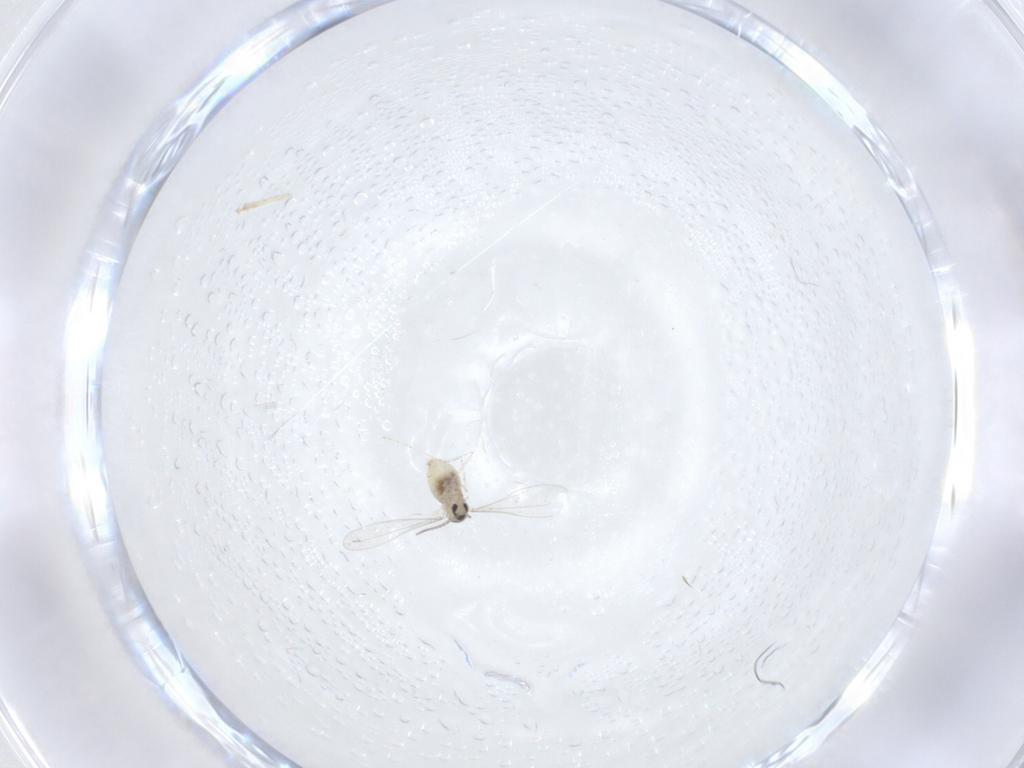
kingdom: Animalia
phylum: Arthropoda
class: Insecta
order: Diptera
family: Cecidomyiidae
